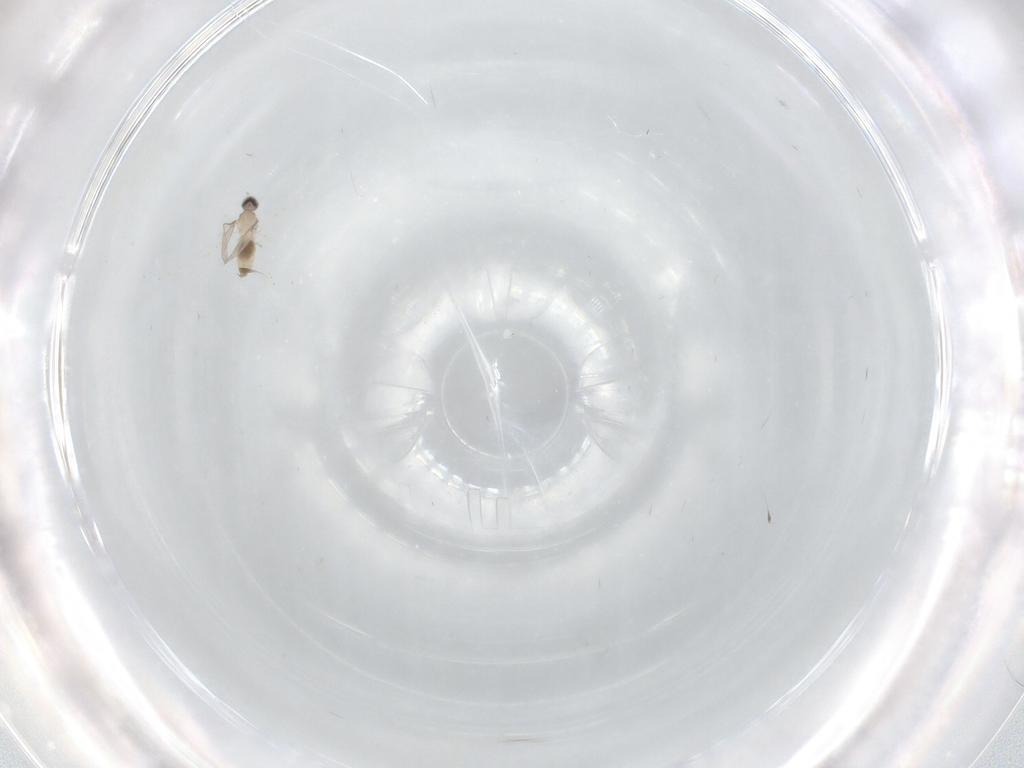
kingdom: Animalia
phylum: Arthropoda
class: Insecta
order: Diptera
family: Cecidomyiidae
